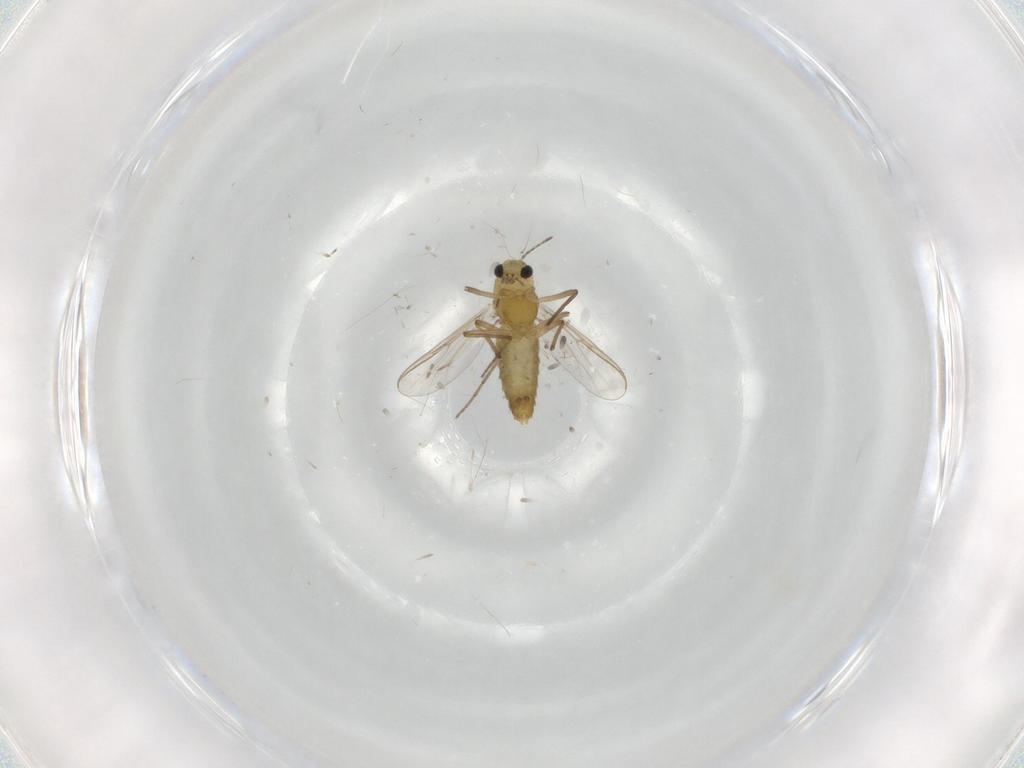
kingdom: Animalia
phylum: Arthropoda
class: Insecta
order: Diptera
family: Chironomidae
